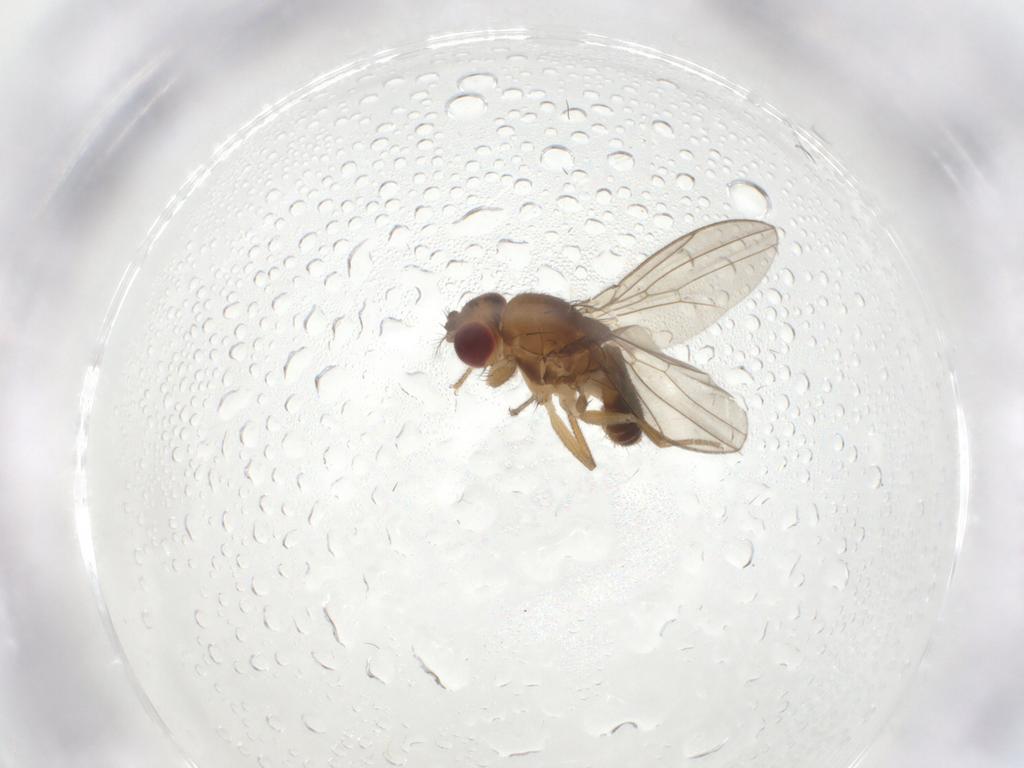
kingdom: Animalia
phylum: Arthropoda
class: Insecta
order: Diptera
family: Drosophilidae
